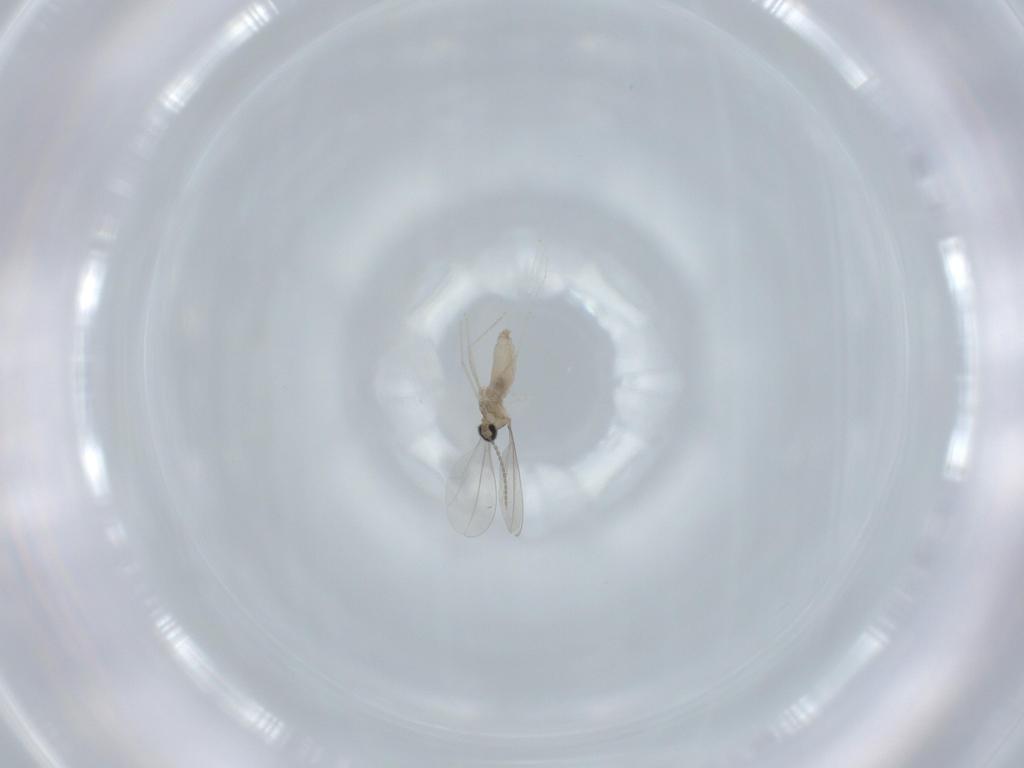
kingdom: Animalia
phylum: Arthropoda
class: Insecta
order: Diptera
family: Cecidomyiidae
